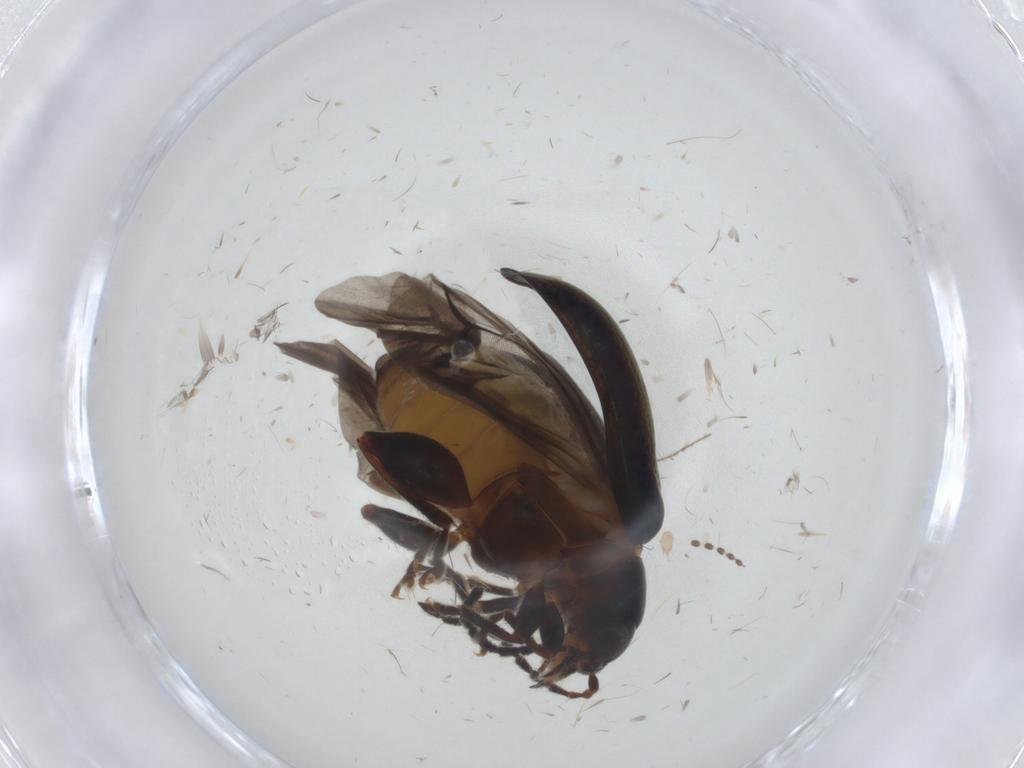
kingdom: Animalia
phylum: Arthropoda
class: Insecta
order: Coleoptera
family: Chrysomelidae
